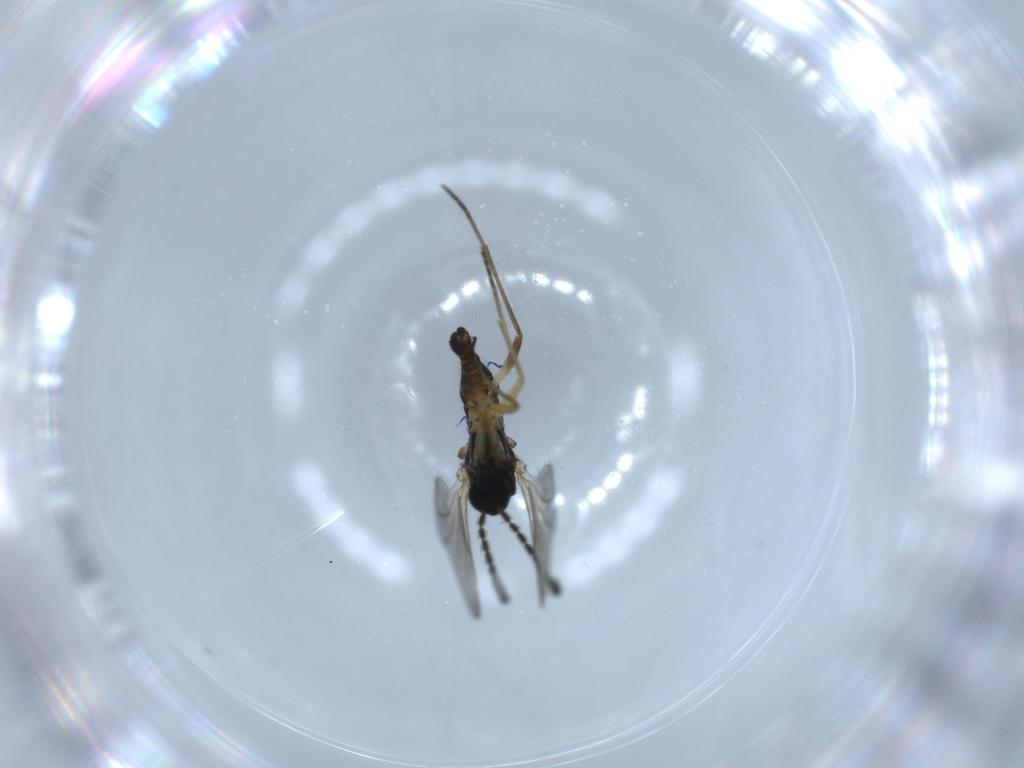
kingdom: Animalia
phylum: Arthropoda
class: Insecta
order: Diptera
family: Sciaridae
